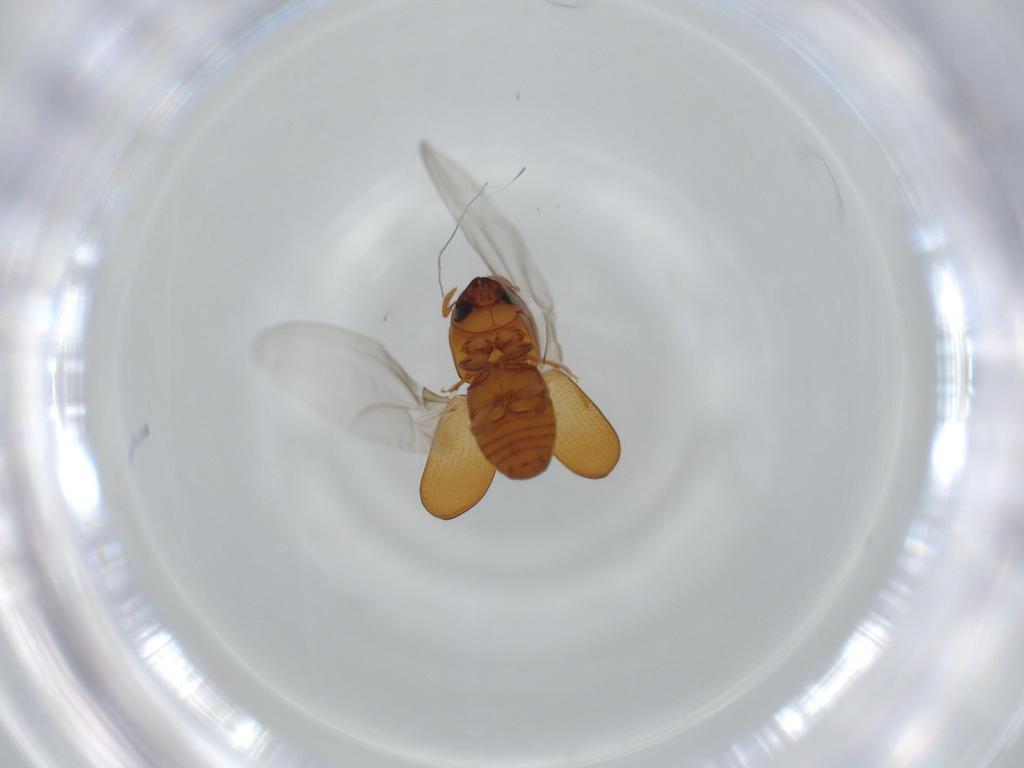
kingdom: Animalia
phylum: Arthropoda
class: Insecta
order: Coleoptera
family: Curculionidae
